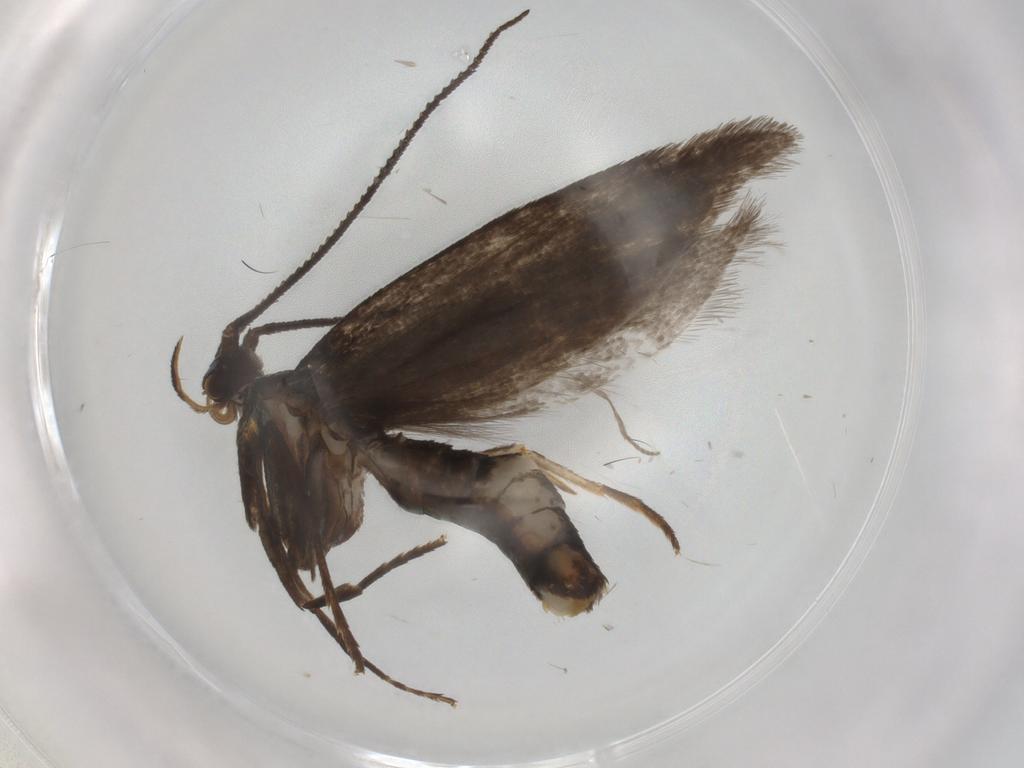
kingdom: Animalia
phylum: Arthropoda
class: Insecta
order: Lepidoptera
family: Argyresthiidae
